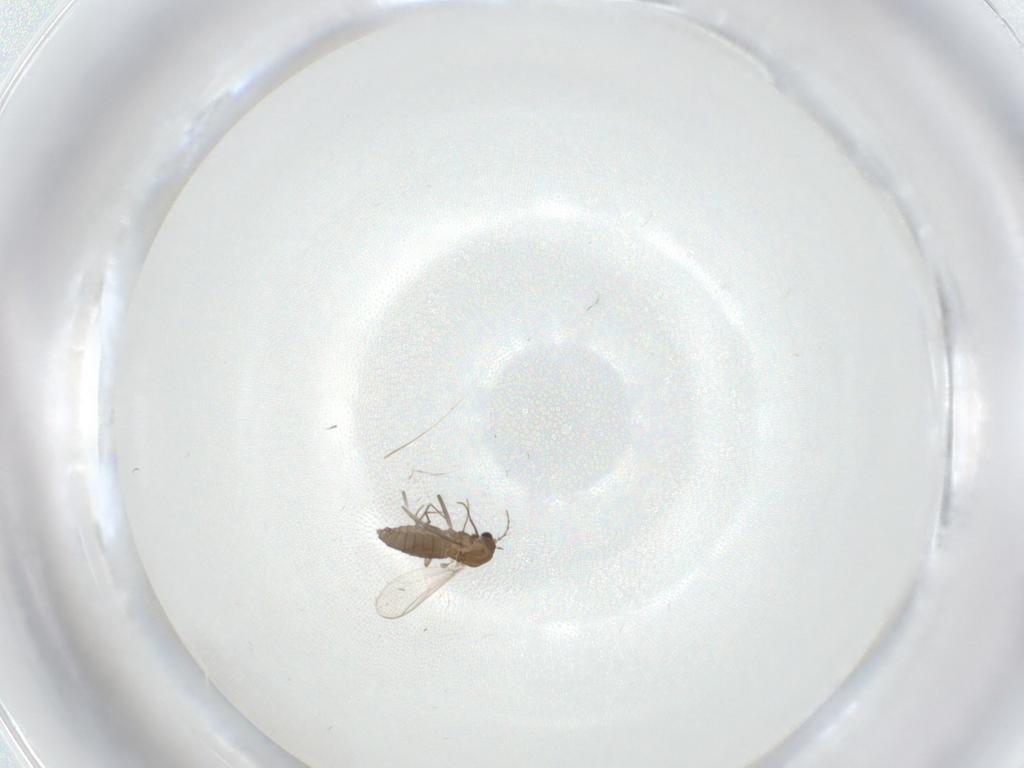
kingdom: Animalia
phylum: Arthropoda
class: Insecta
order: Diptera
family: Chironomidae
